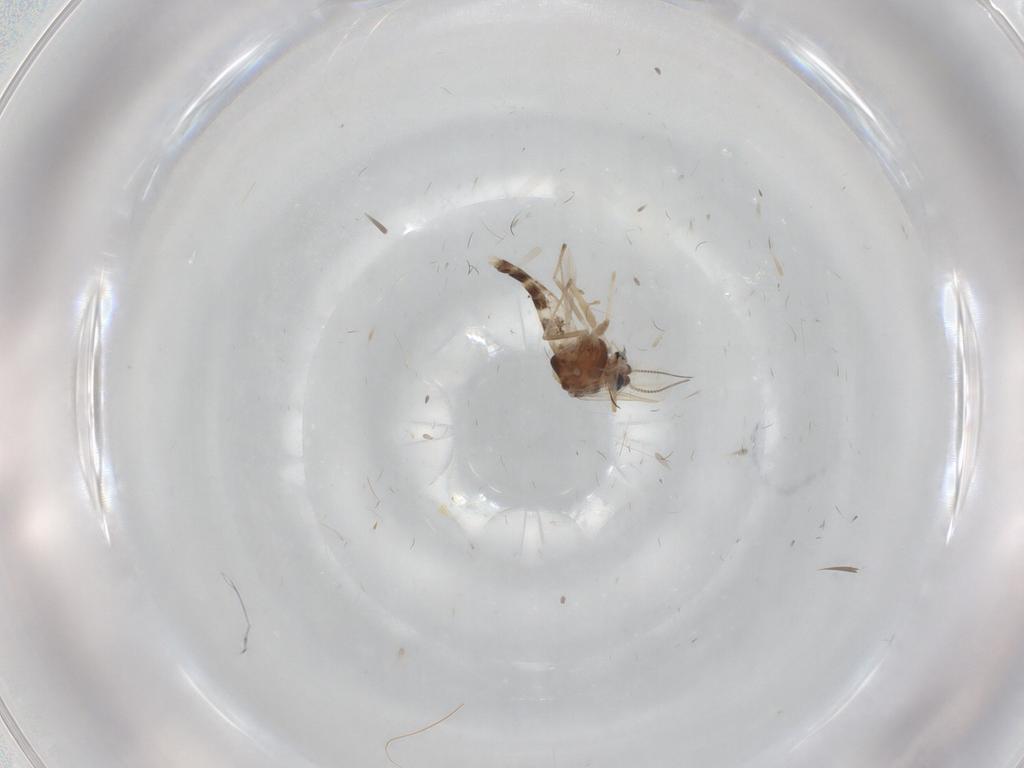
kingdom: Animalia
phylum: Arthropoda
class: Insecta
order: Diptera
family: Chironomidae
